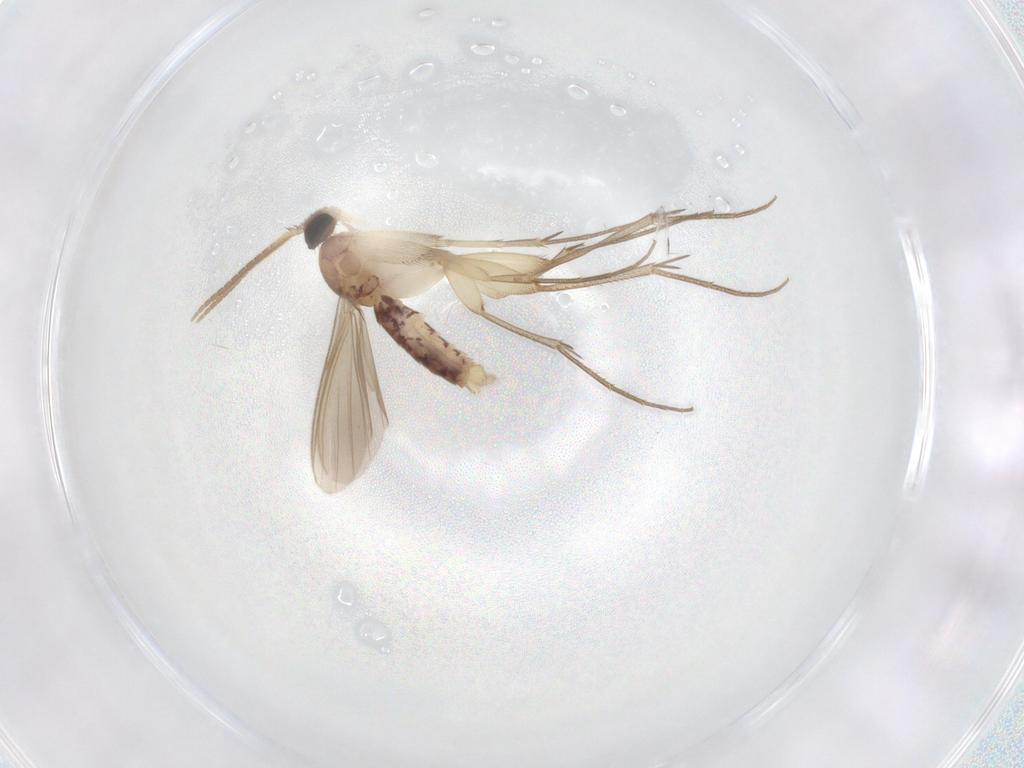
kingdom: Animalia
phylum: Arthropoda
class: Insecta
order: Diptera
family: Mycetophilidae
